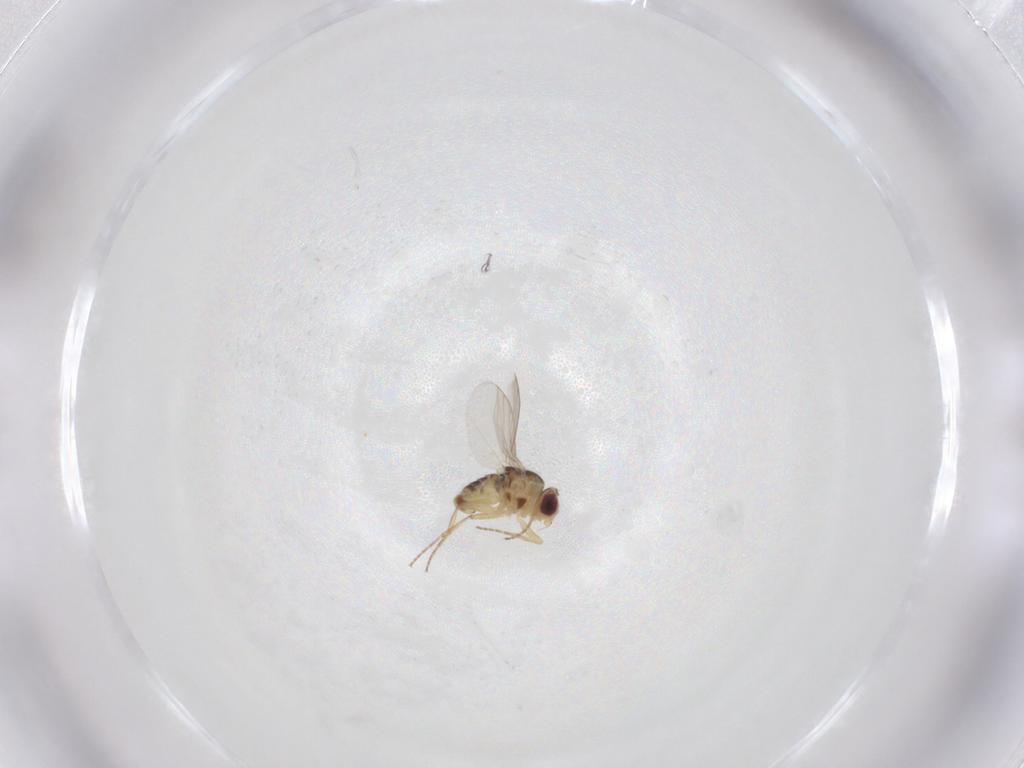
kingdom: Animalia
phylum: Arthropoda
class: Insecta
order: Diptera
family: Agromyzidae
